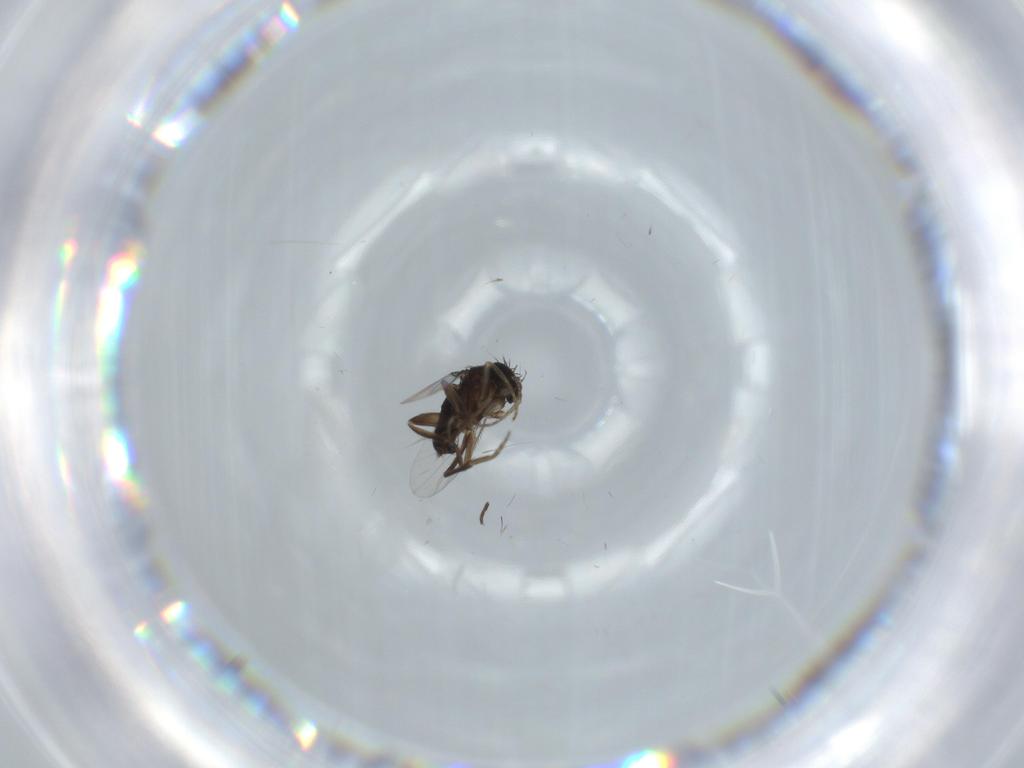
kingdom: Animalia
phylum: Arthropoda
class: Insecta
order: Diptera
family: Phoridae
